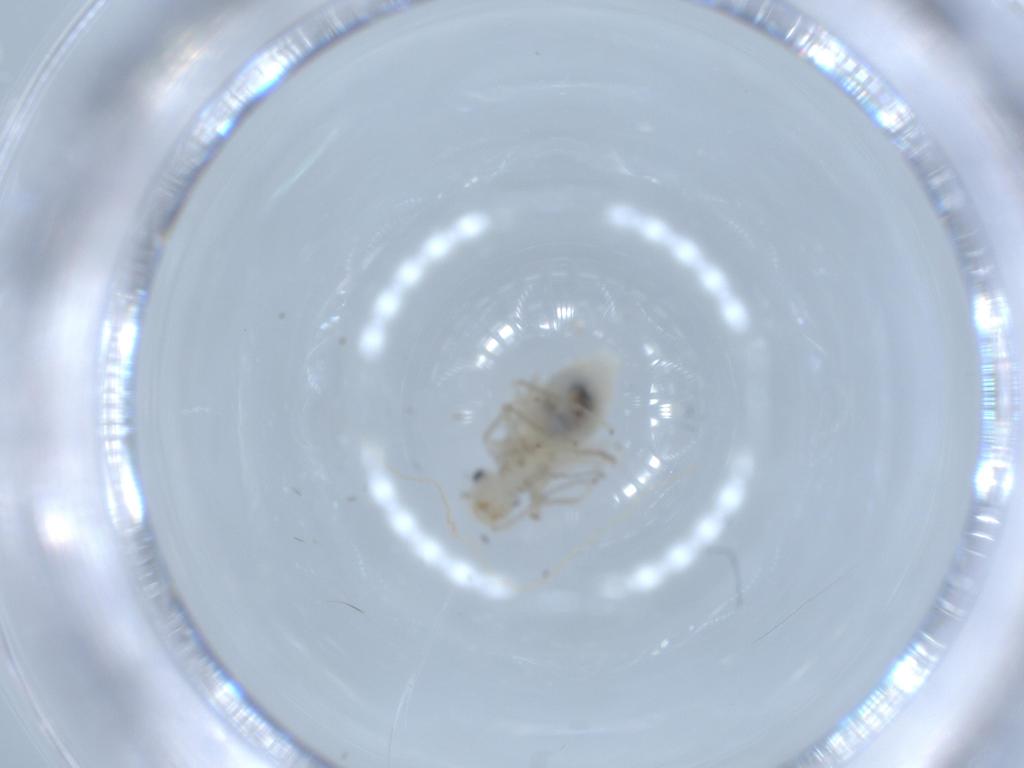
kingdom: Animalia
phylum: Arthropoda
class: Insecta
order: Psocodea
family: Caeciliusidae
